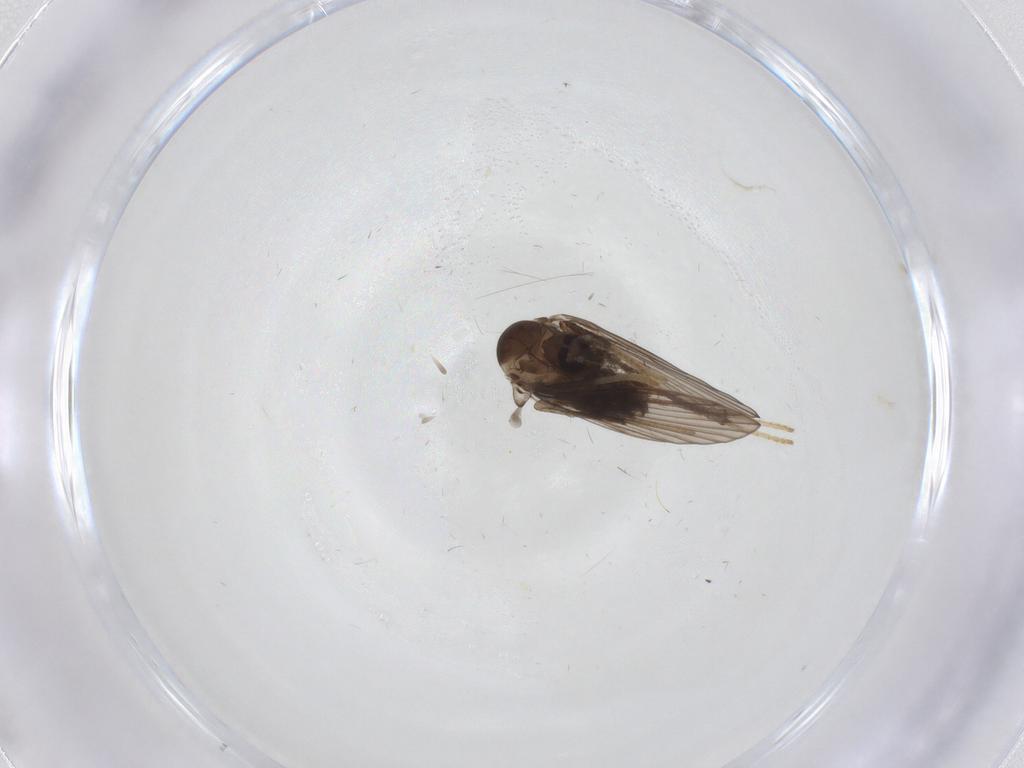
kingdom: Animalia
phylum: Arthropoda
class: Insecta
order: Diptera
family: Psychodidae
